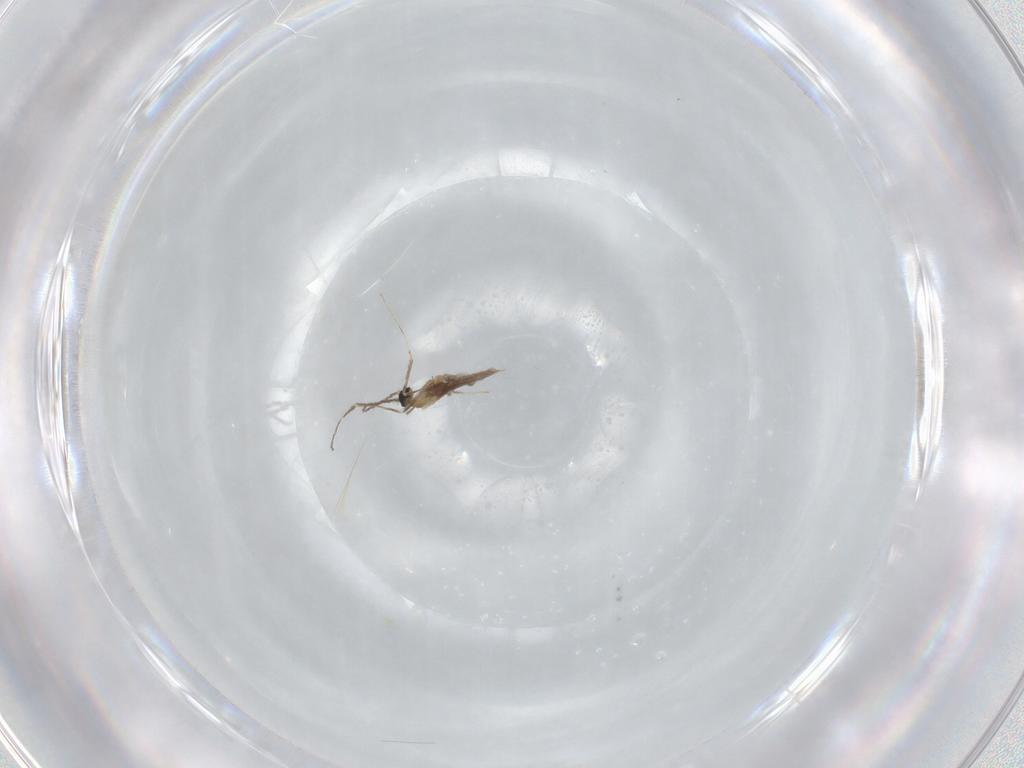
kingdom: Animalia
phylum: Arthropoda
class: Insecta
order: Diptera
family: Cecidomyiidae
